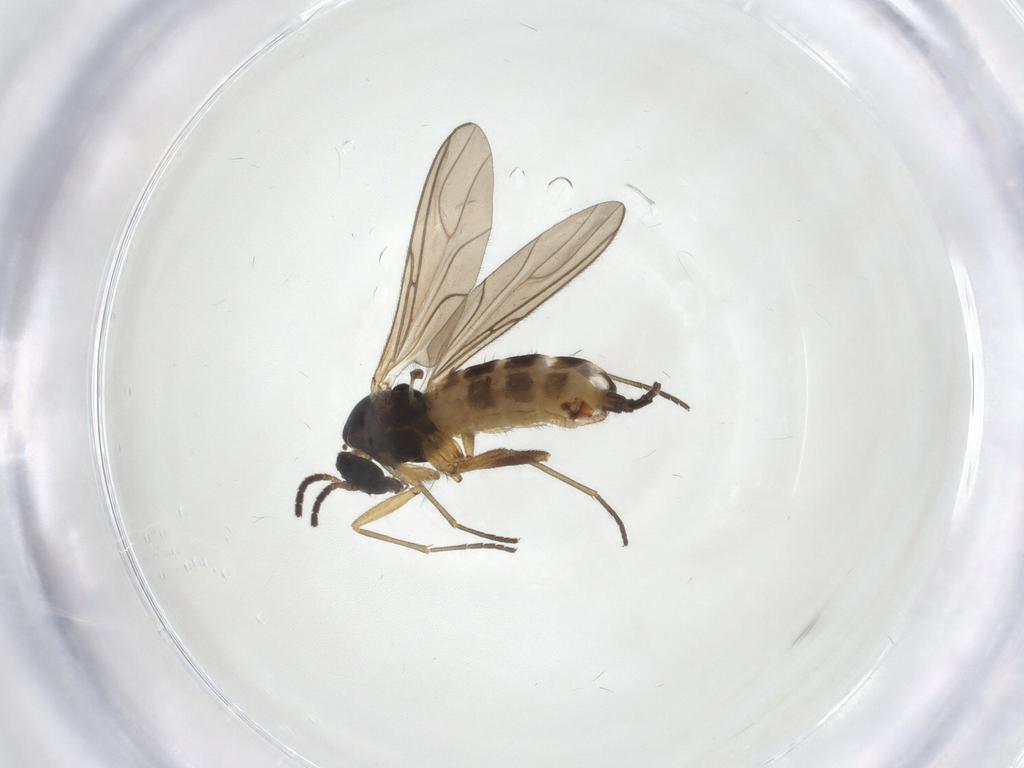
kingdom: Animalia
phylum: Arthropoda
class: Insecta
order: Diptera
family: Sciaridae
